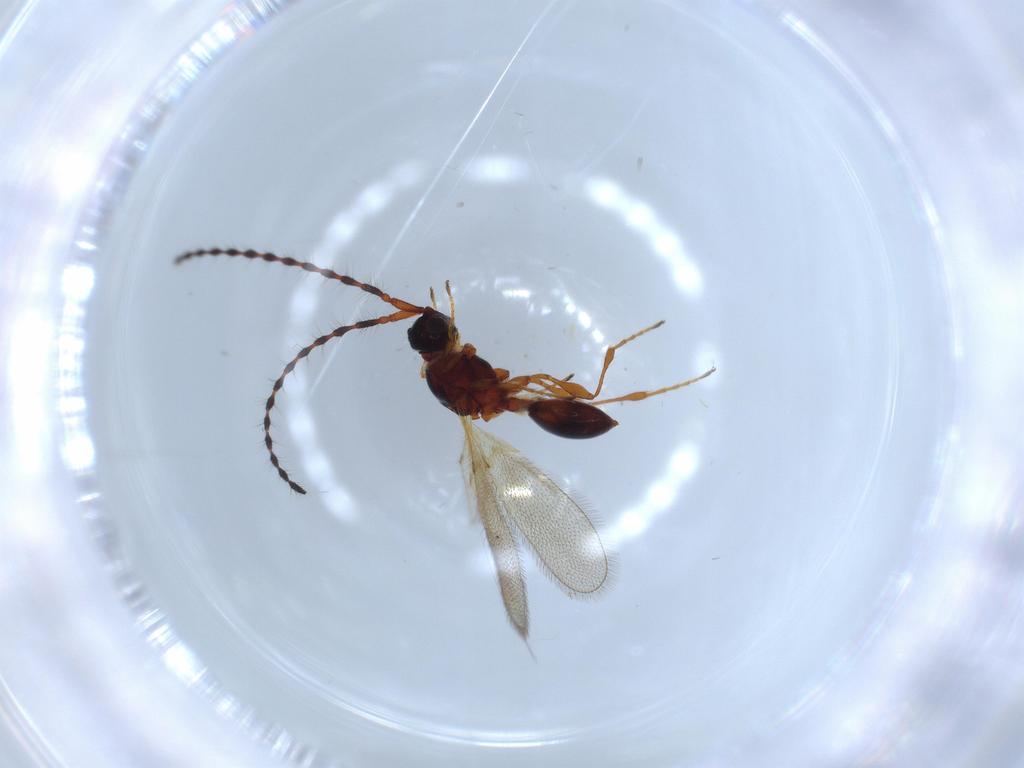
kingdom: Animalia
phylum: Arthropoda
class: Insecta
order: Hymenoptera
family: Diapriidae
